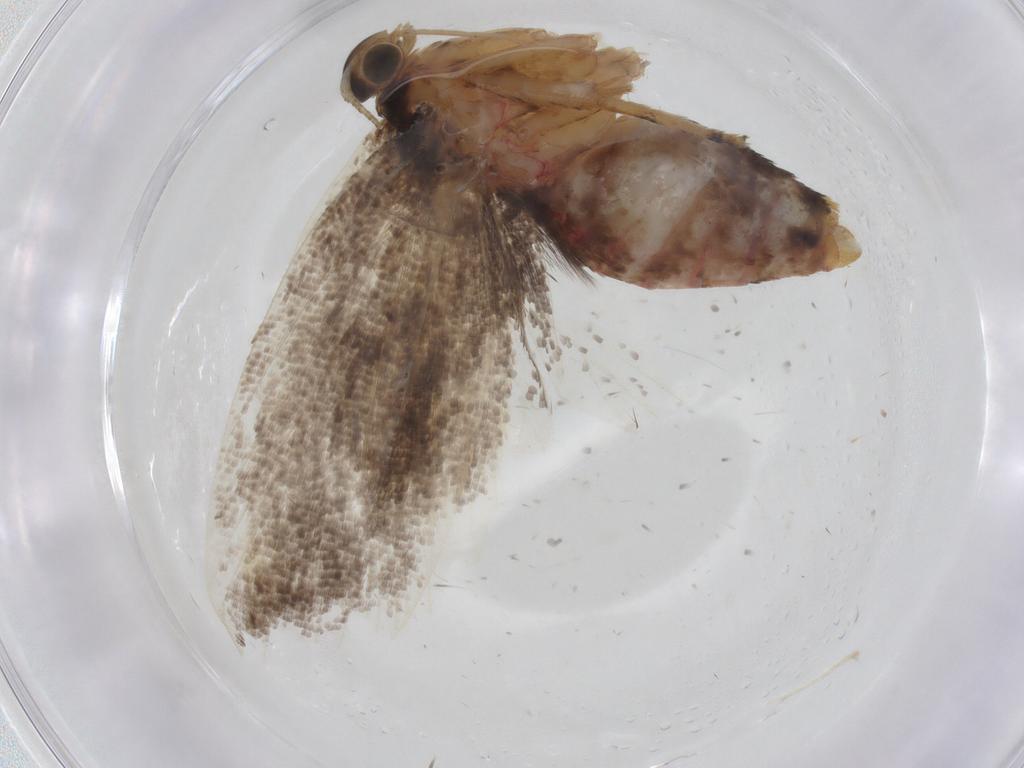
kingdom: Animalia
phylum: Arthropoda
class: Insecta
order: Lepidoptera
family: Gelechiidae
